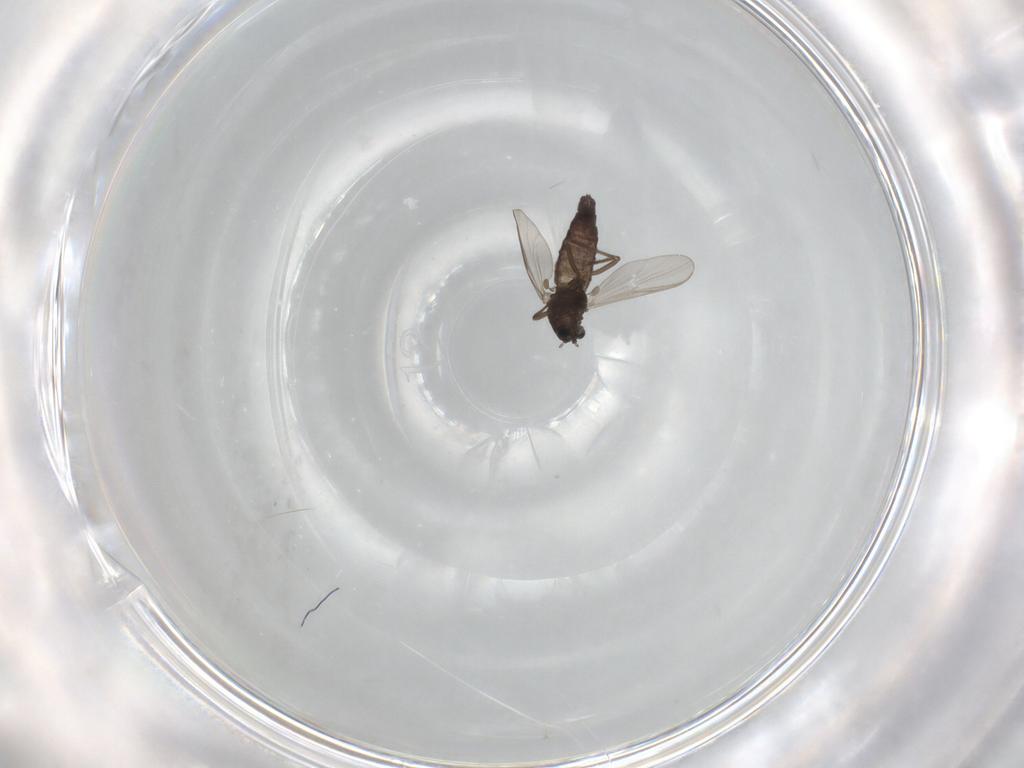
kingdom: Animalia
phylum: Arthropoda
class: Insecta
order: Diptera
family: Chironomidae
